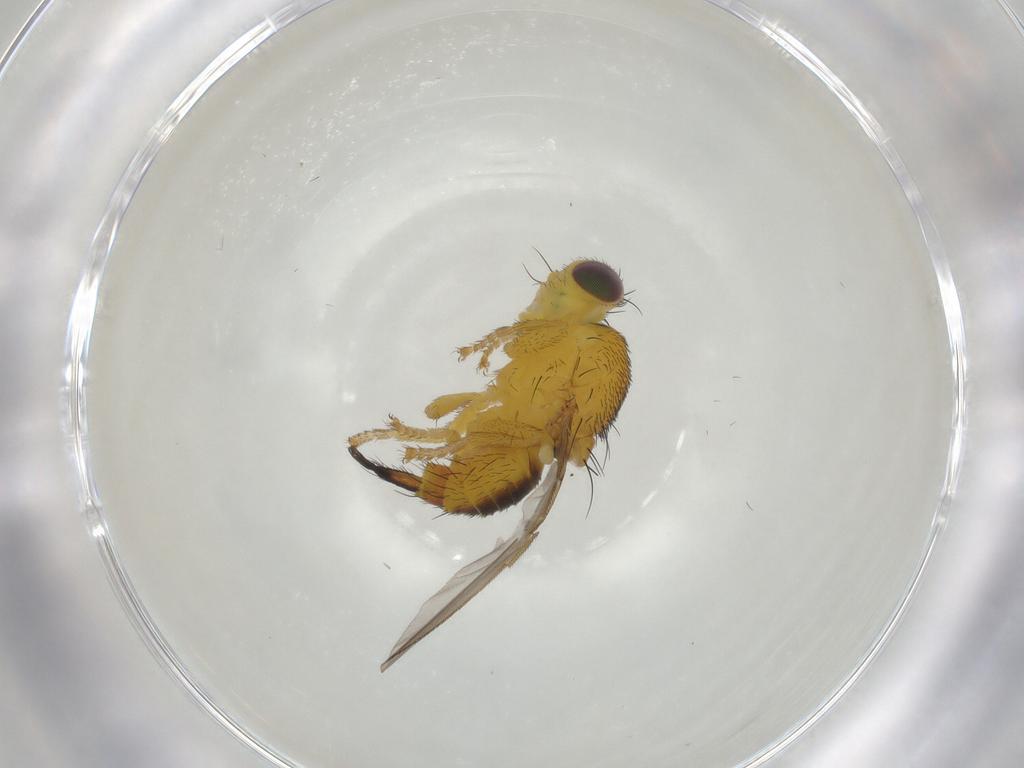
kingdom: Animalia
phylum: Arthropoda
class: Insecta
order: Diptera
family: Fergusoninidae
